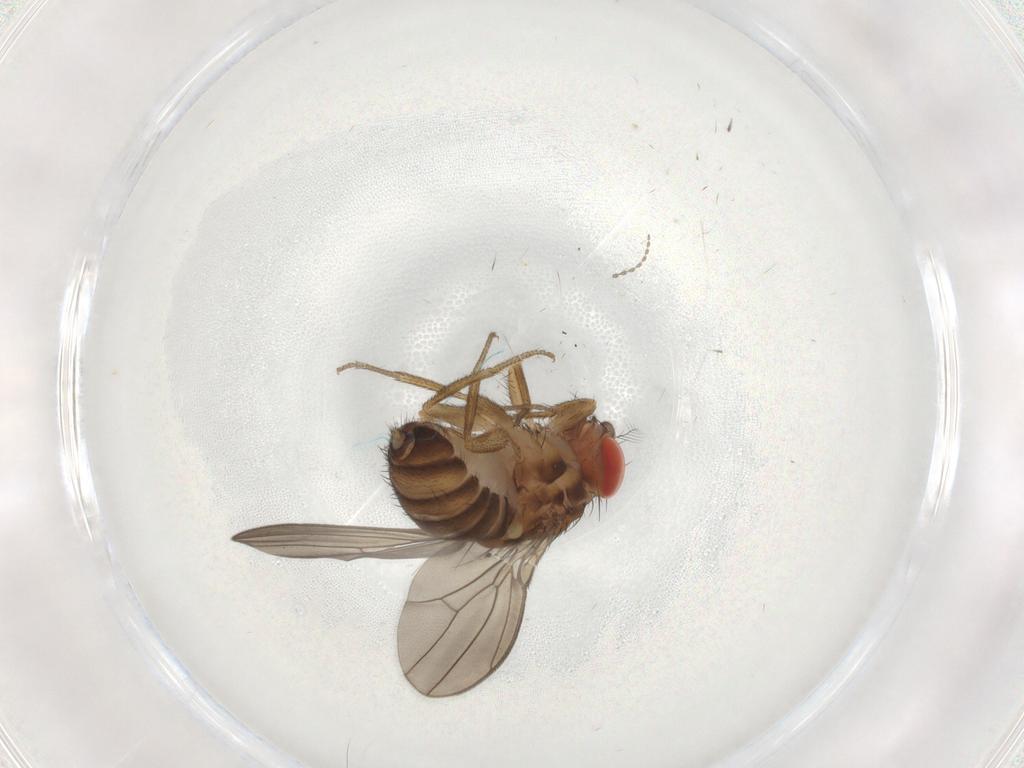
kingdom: Animalia
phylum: Arthropoda
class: Insecta
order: Diptera
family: Drosophilidae
